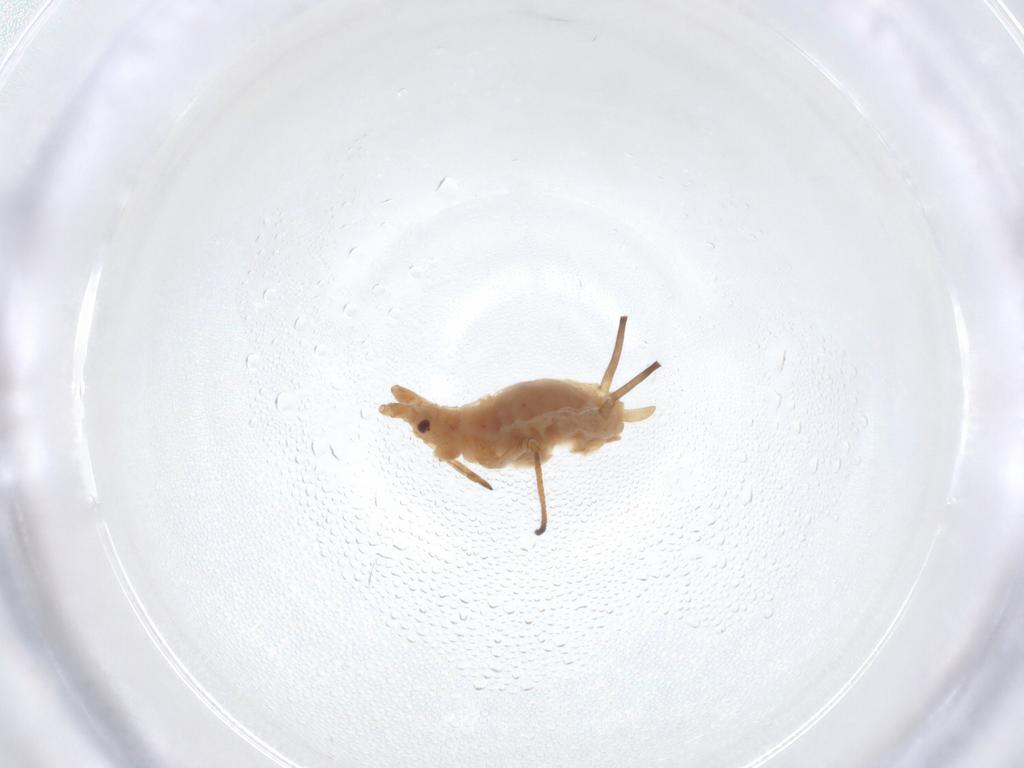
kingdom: Animalia
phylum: Arthropoda
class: Insecta
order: Hemiptera
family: Aphididae
